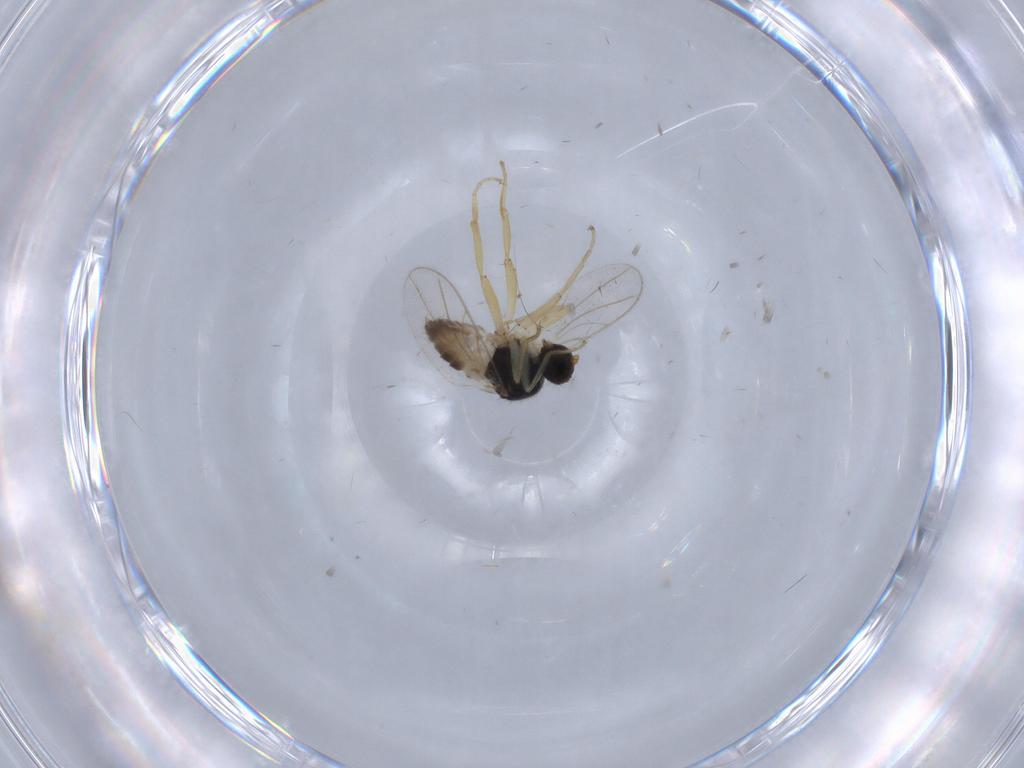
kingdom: Animalia
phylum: Arthropoda
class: Insecta
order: Diptera
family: Hybotidae
